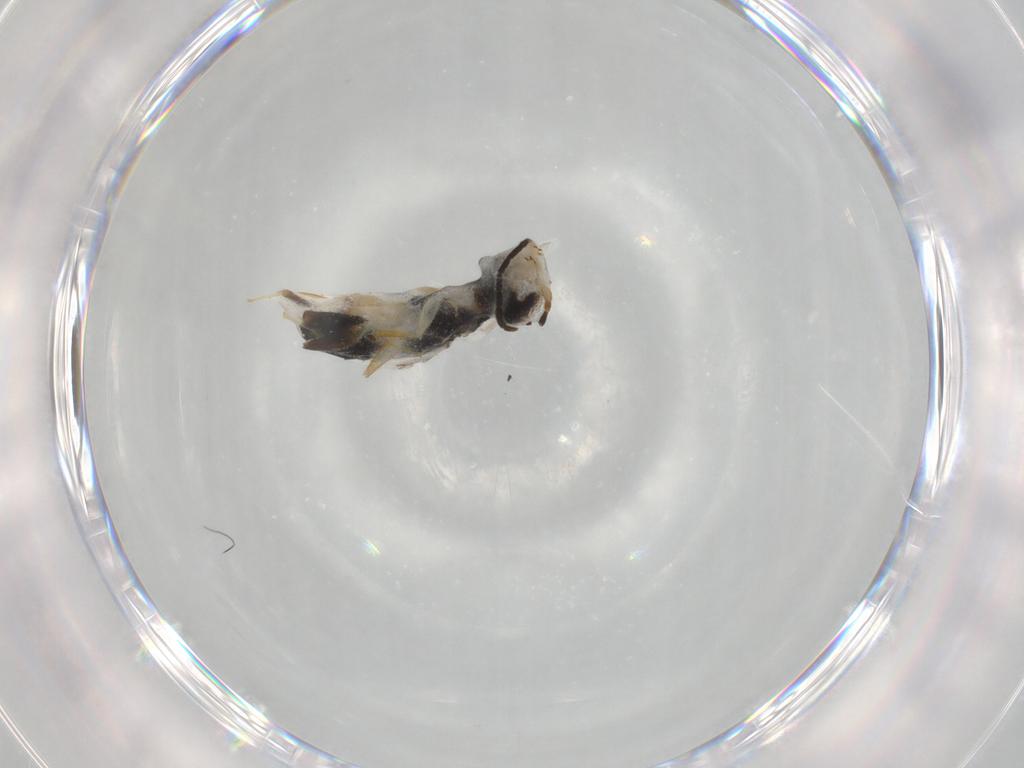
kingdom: Animalia
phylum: Arthropoda
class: Insecta
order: Hymenoptera
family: Dryinidae
